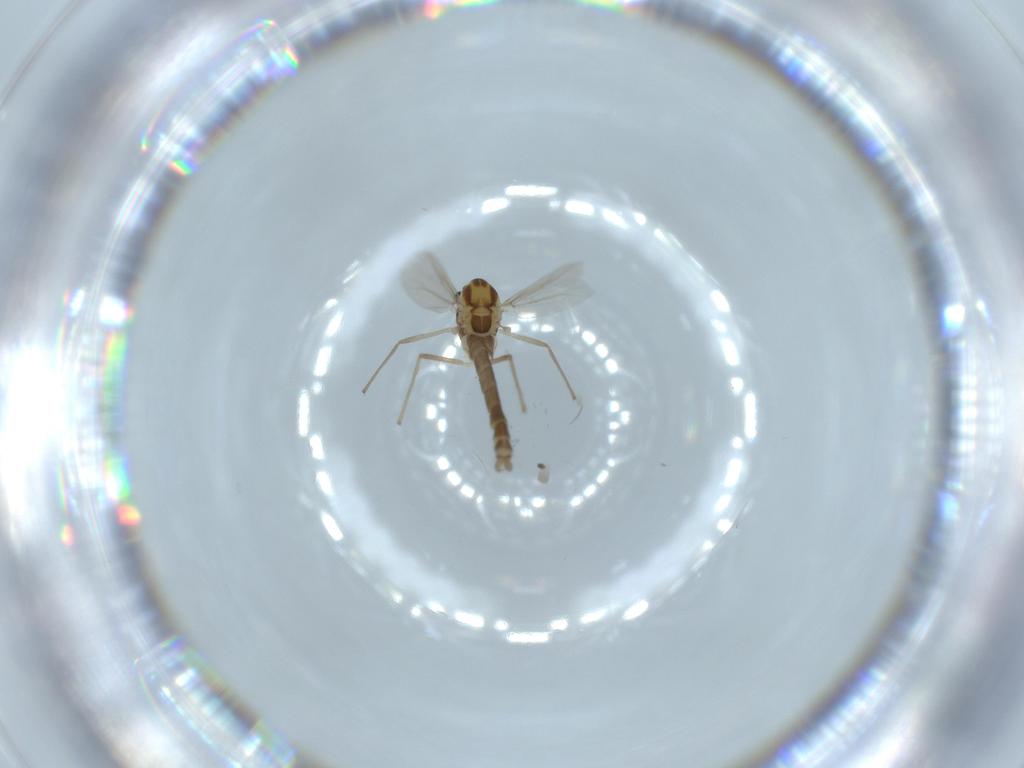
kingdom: Animalia
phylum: Arthropoda
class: Insecta
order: Diptera
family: Chironomidae
